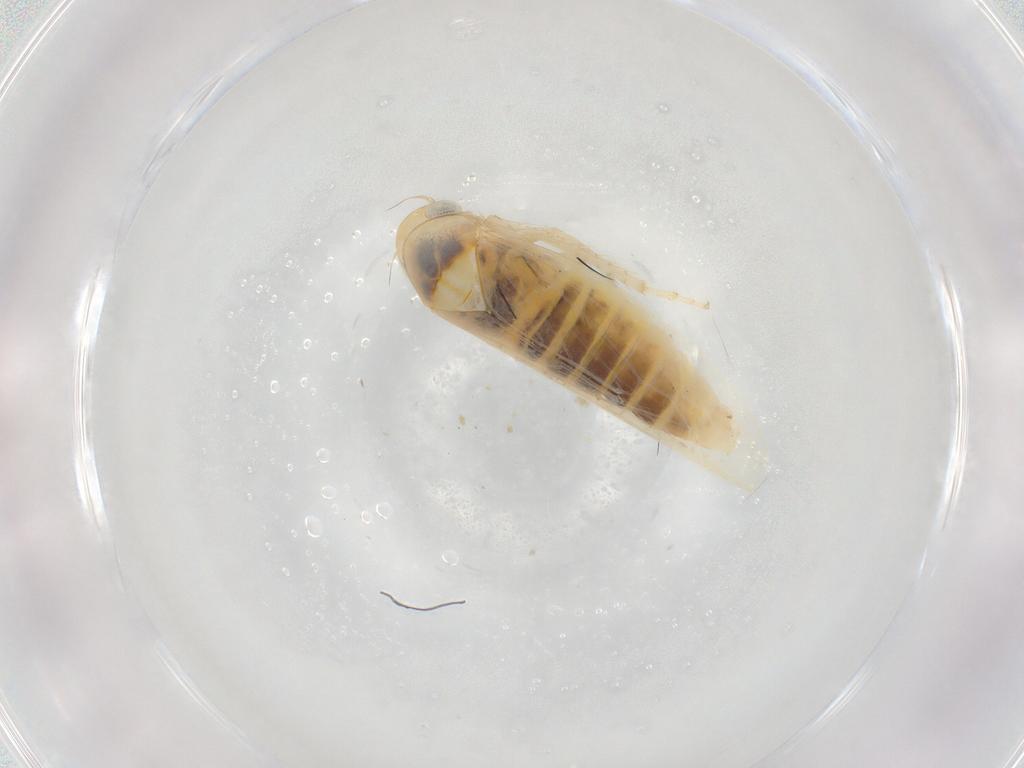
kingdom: Animalia
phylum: Arthropoda
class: Insecta
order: Hemiptera
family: Cicadellidae
